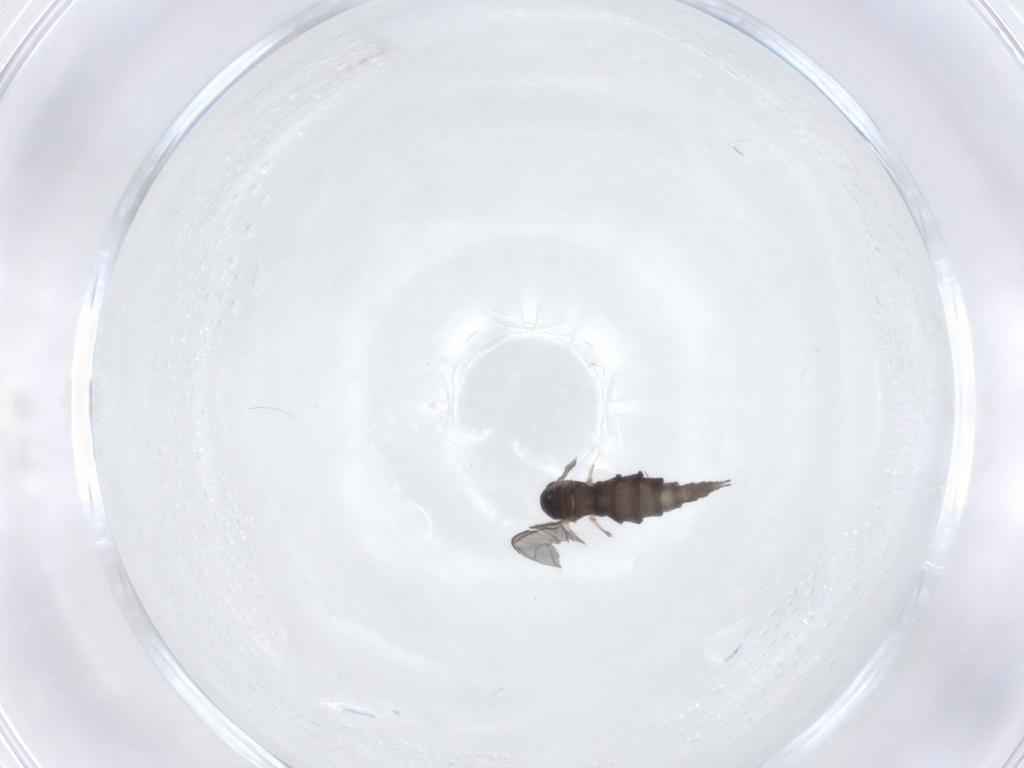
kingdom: Animalia
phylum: Arthropoda
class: Insecta
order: Diptera
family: Sciaridae
